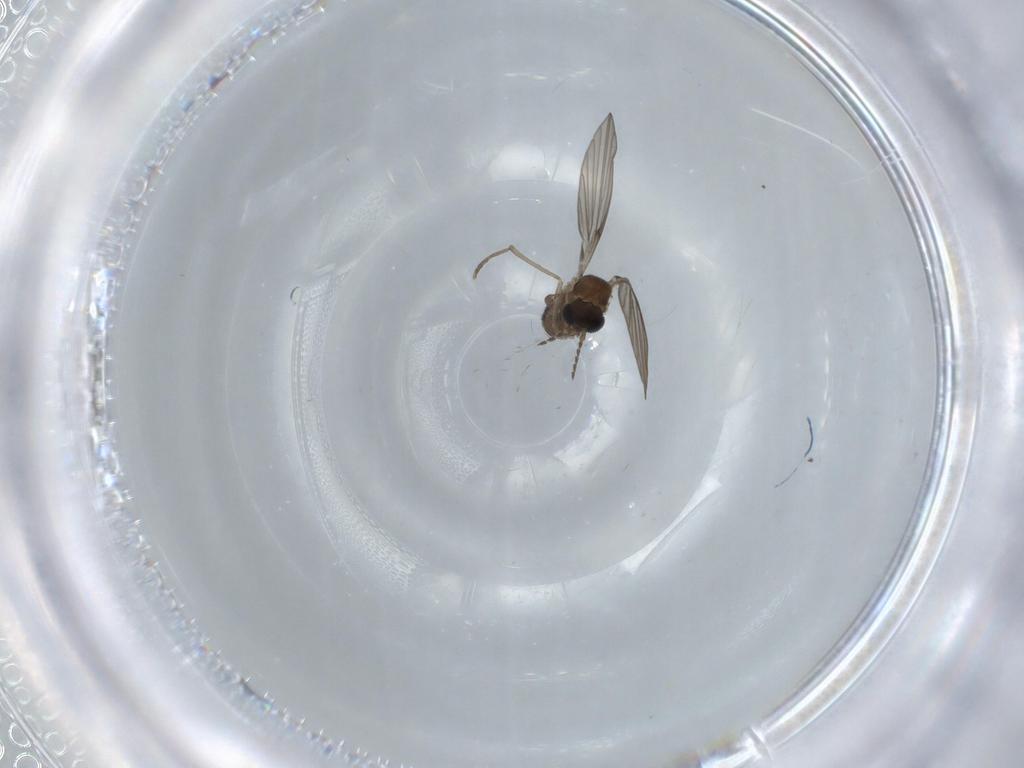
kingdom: Animalia
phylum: Arthropoda
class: Insecta
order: Diptera
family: Psychodidae
